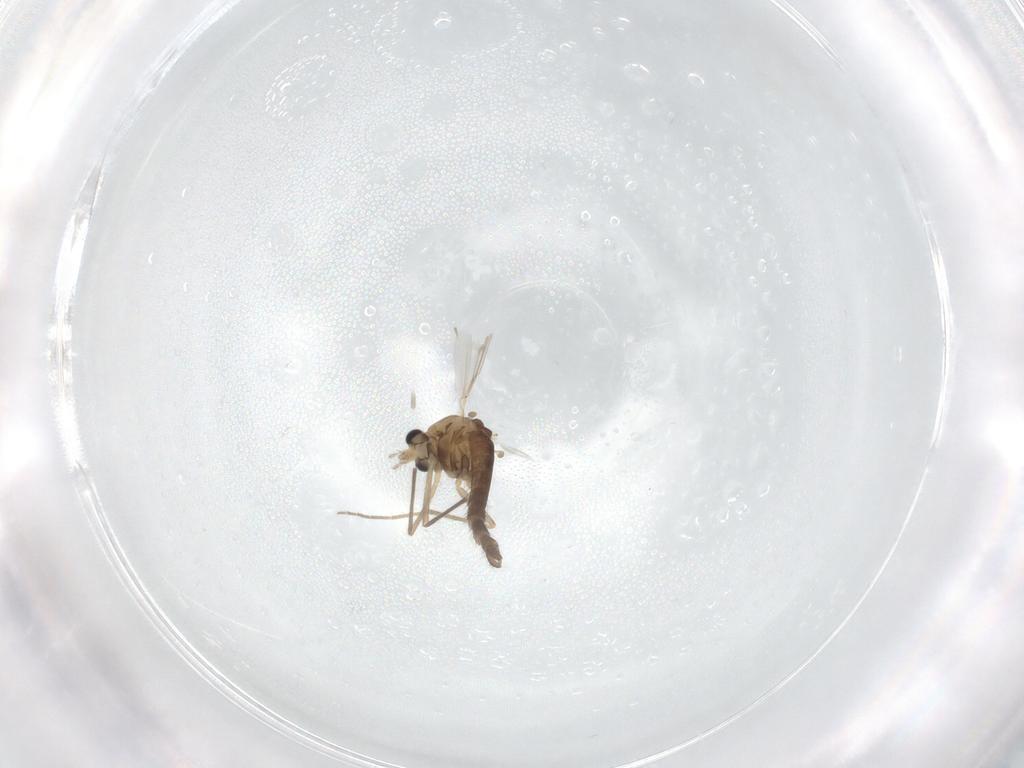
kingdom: Animalia
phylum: Arthropoda
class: Insecta
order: Diptera
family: Chironomidae
